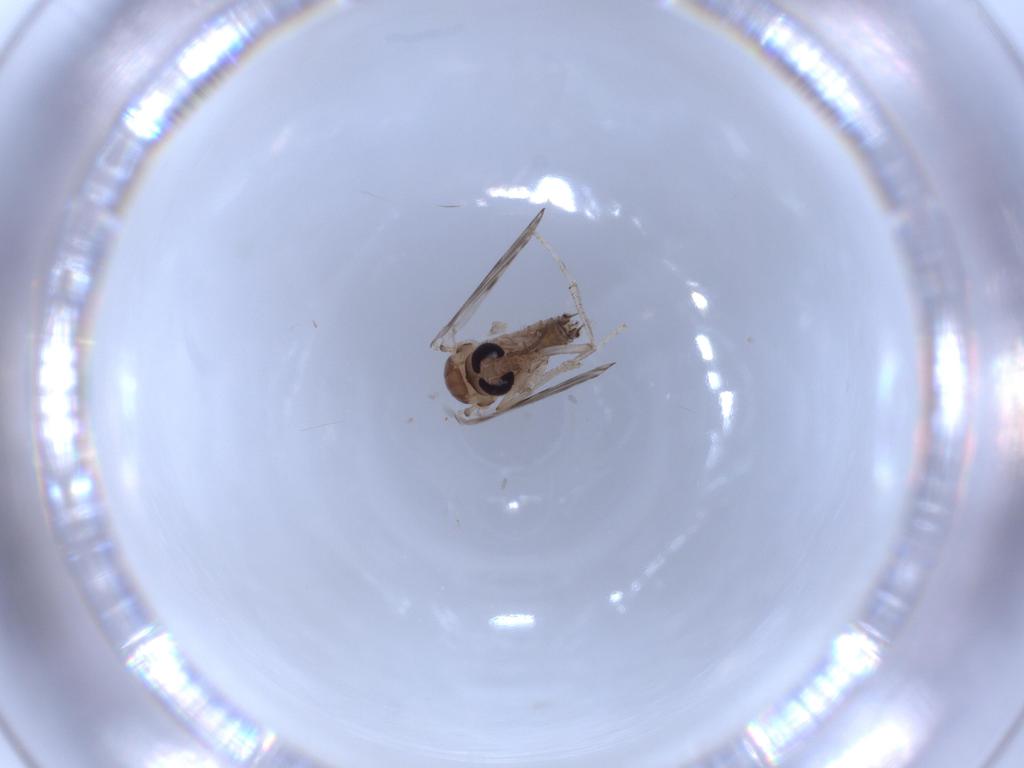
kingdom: Animalia
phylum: Arthropoda
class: Insecta
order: Diptera
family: Psychodidae
